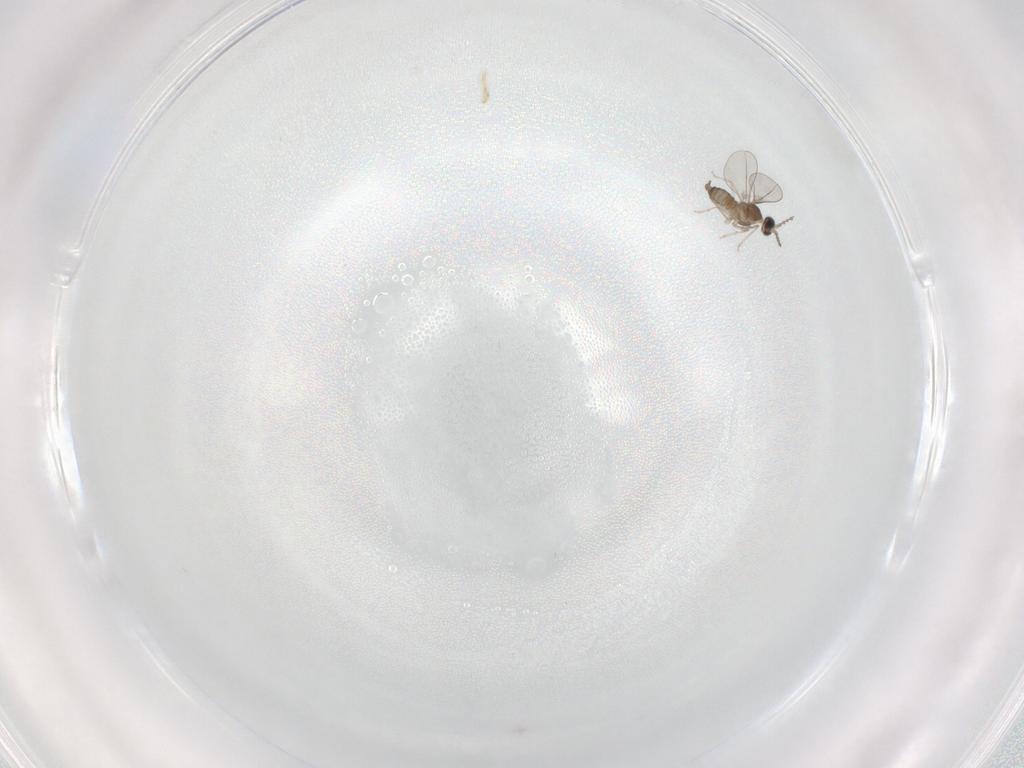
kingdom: Animalia
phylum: Arthropoda
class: Insecta
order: Diptera
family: Cecidomyiidae
